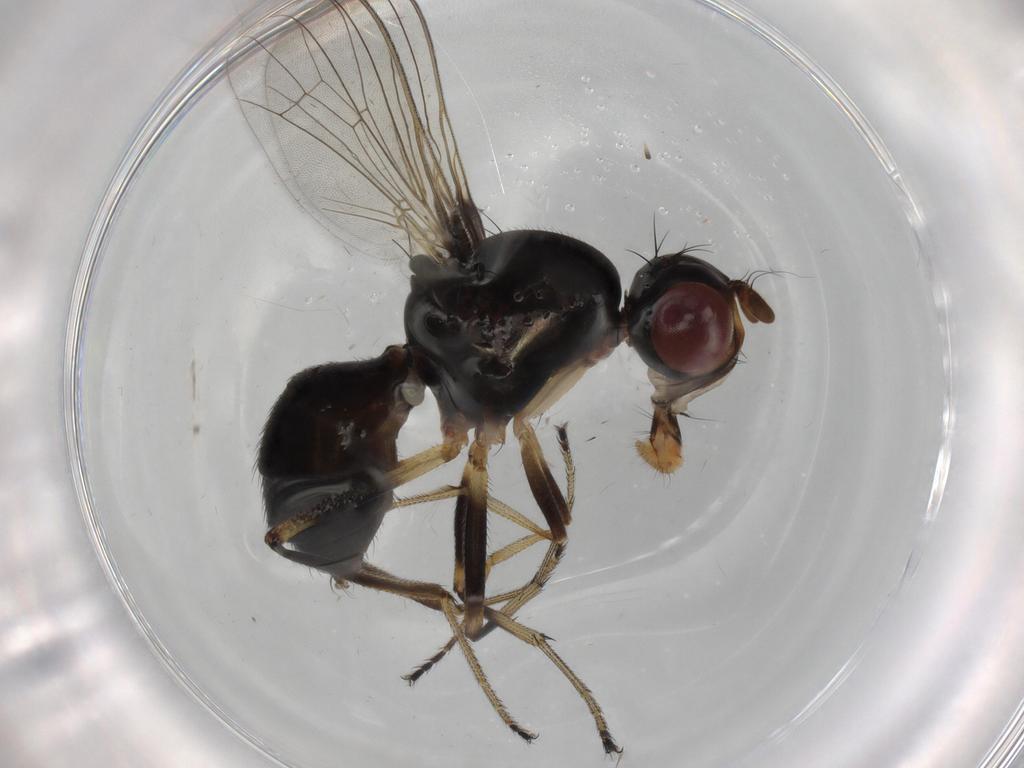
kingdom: Animalia
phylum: Arthropoda
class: Insecta
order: Diptera
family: Sepsidae
